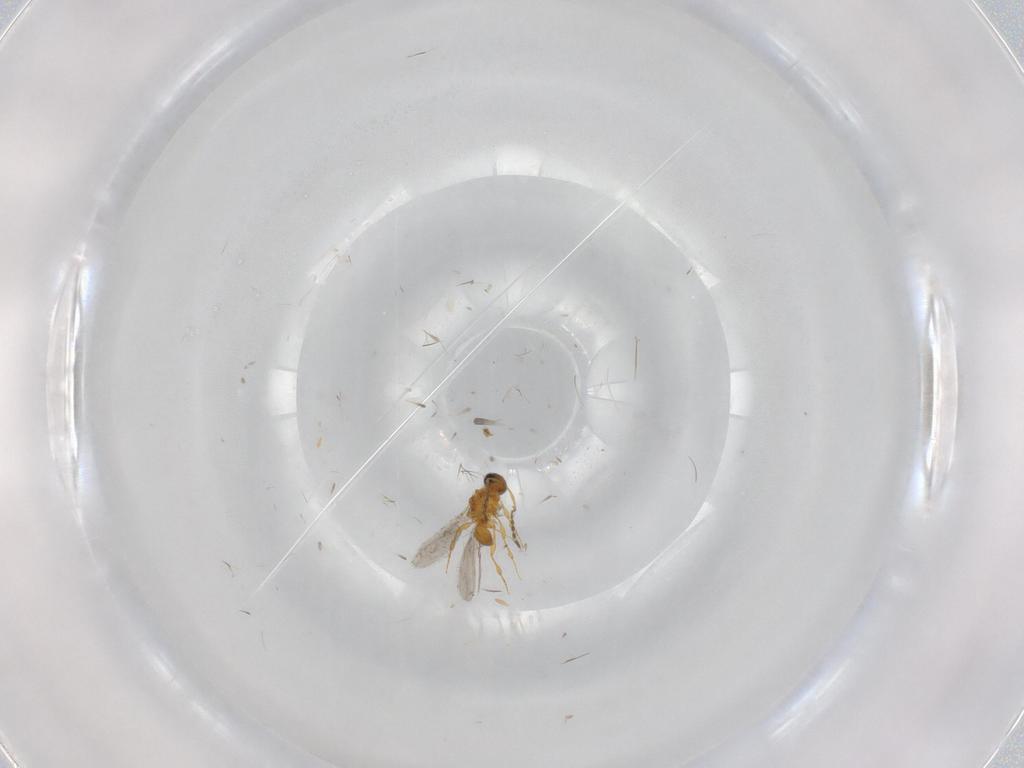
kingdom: Animalia
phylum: Arthropoda
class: Insecta
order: Hymenoptera
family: Platygastridae
